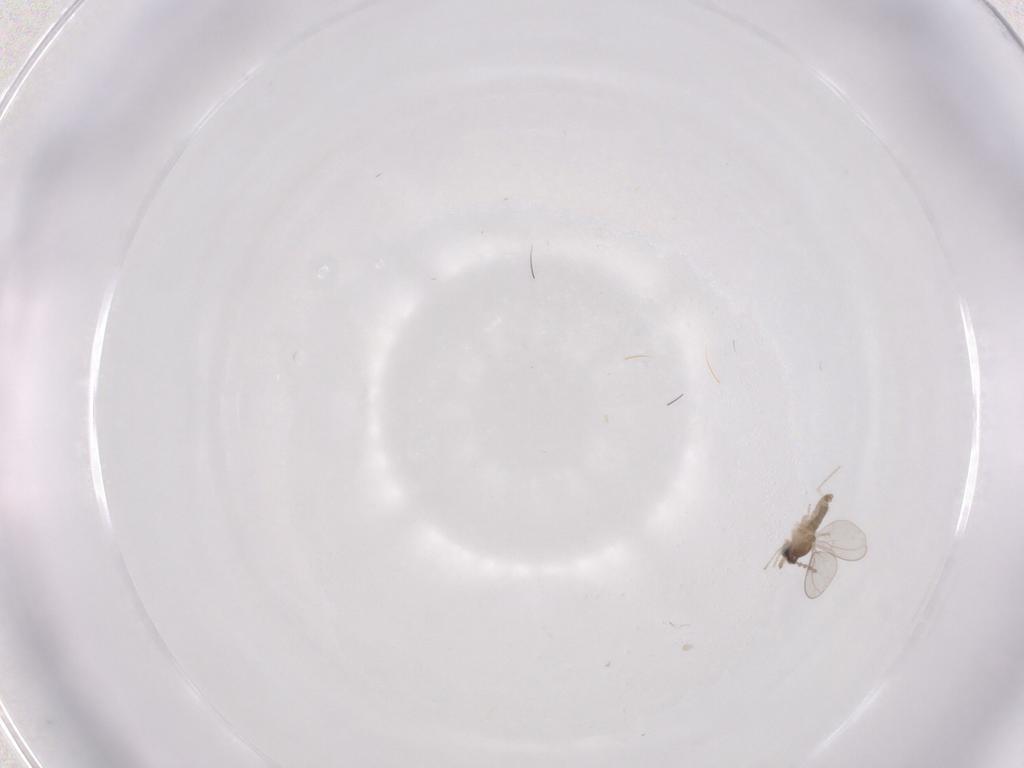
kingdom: Animalia
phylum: Arthropoda
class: Insecta
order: Diptera
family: Cecidomyiidae
